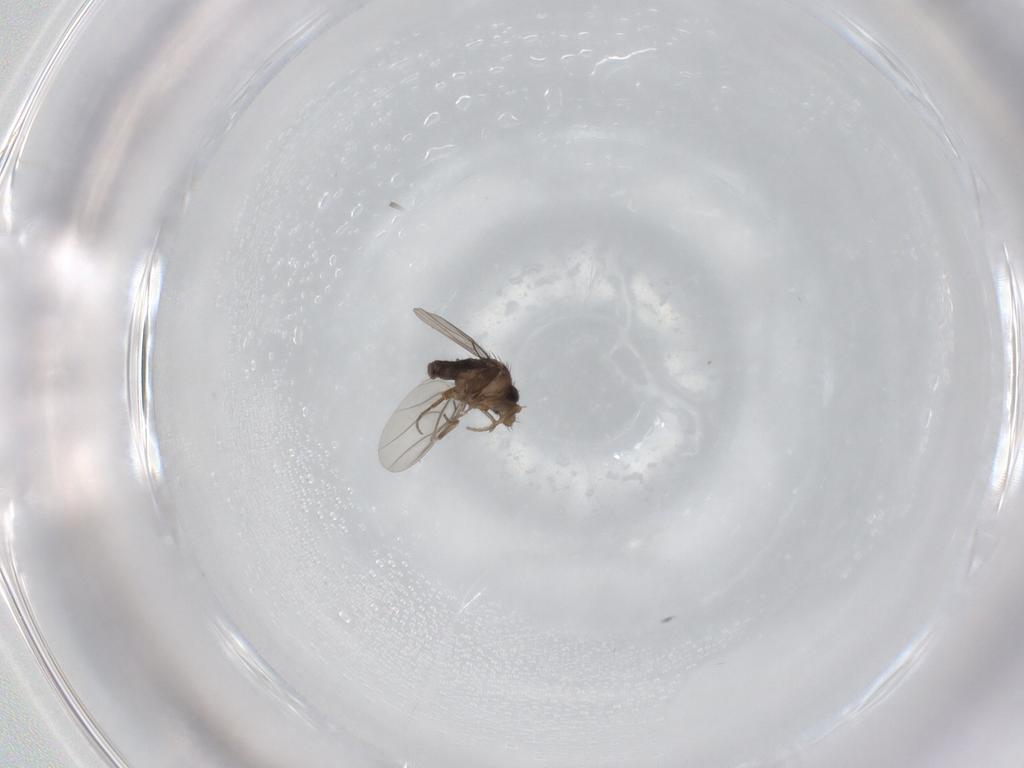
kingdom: Animalia
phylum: Arthropoda
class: Insecta
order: Diptera
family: Phoridae
